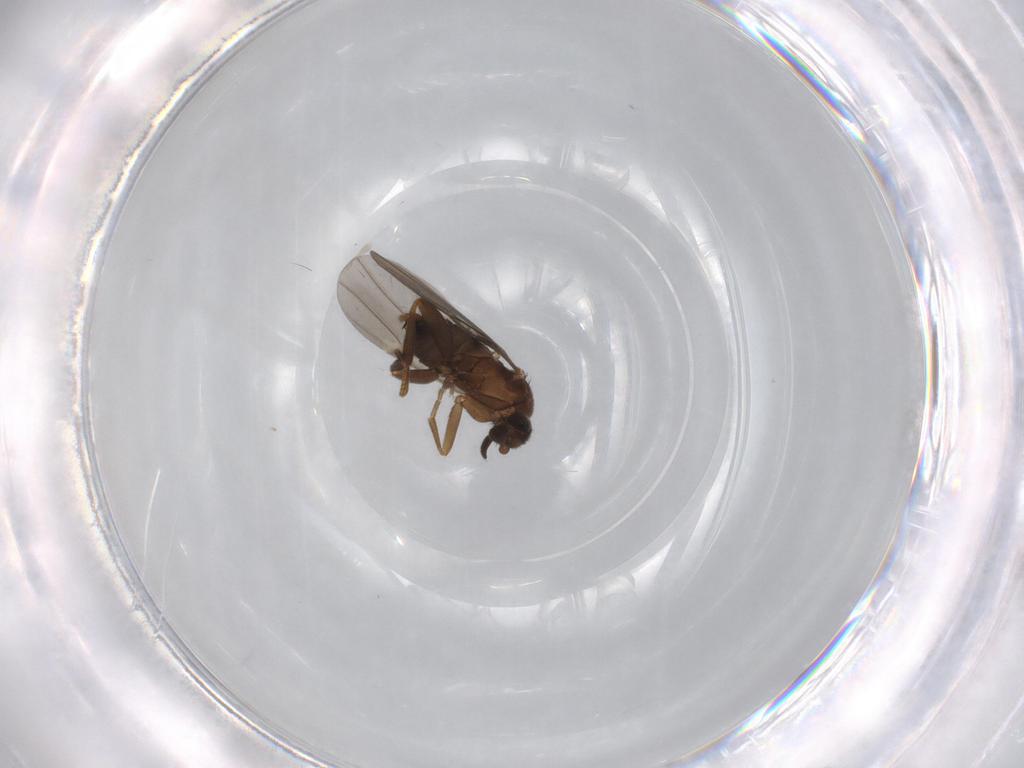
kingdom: Animalia
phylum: Arthropoda
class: Insecta
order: Diptera
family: Phoridae
